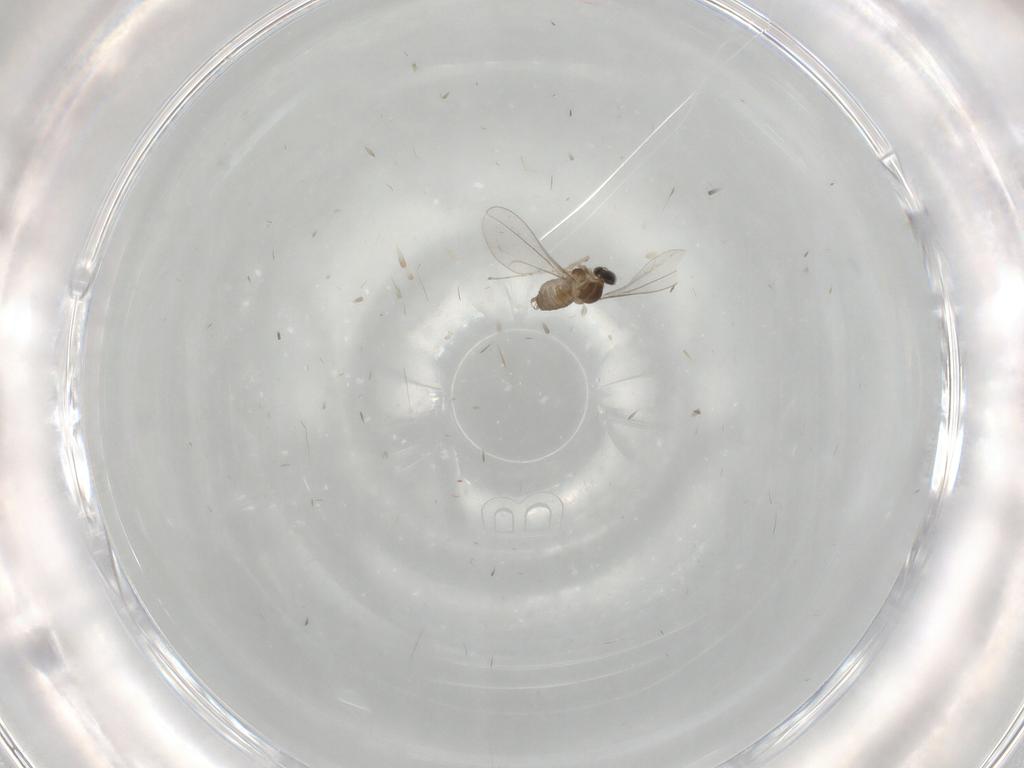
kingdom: Animalia
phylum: Arthropoda
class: Insecta
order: Diptera
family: Cecidomyiidae
